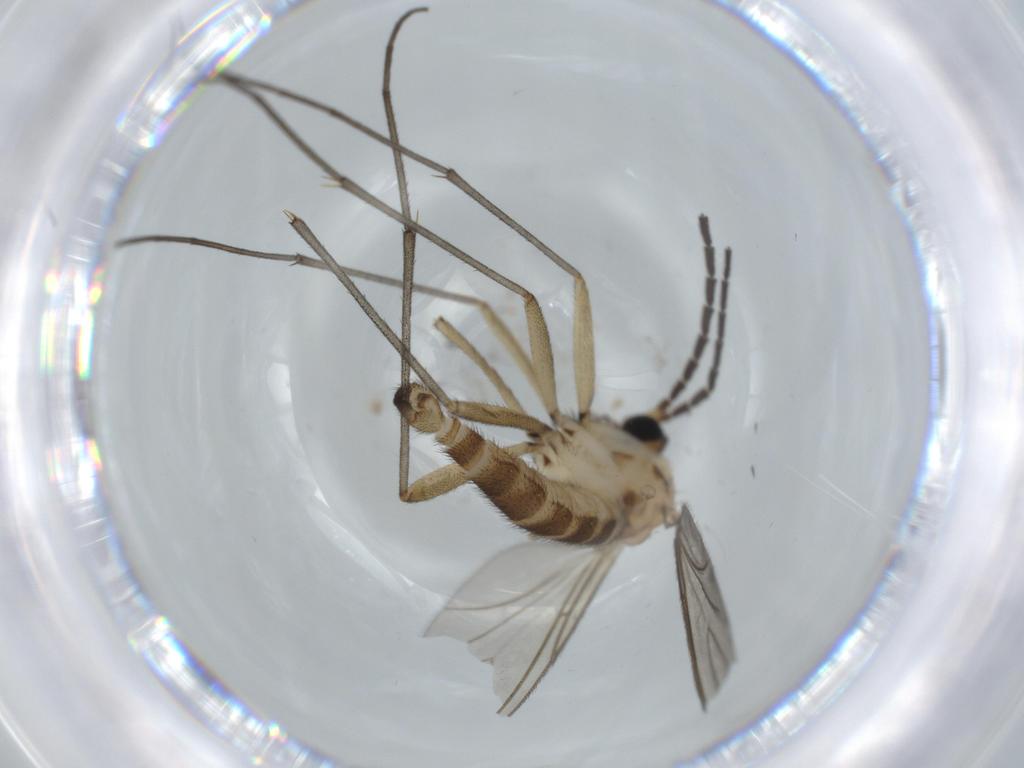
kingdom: Animalia
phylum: Arthropoda
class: Insecta
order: Diptera
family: Sciaridae
